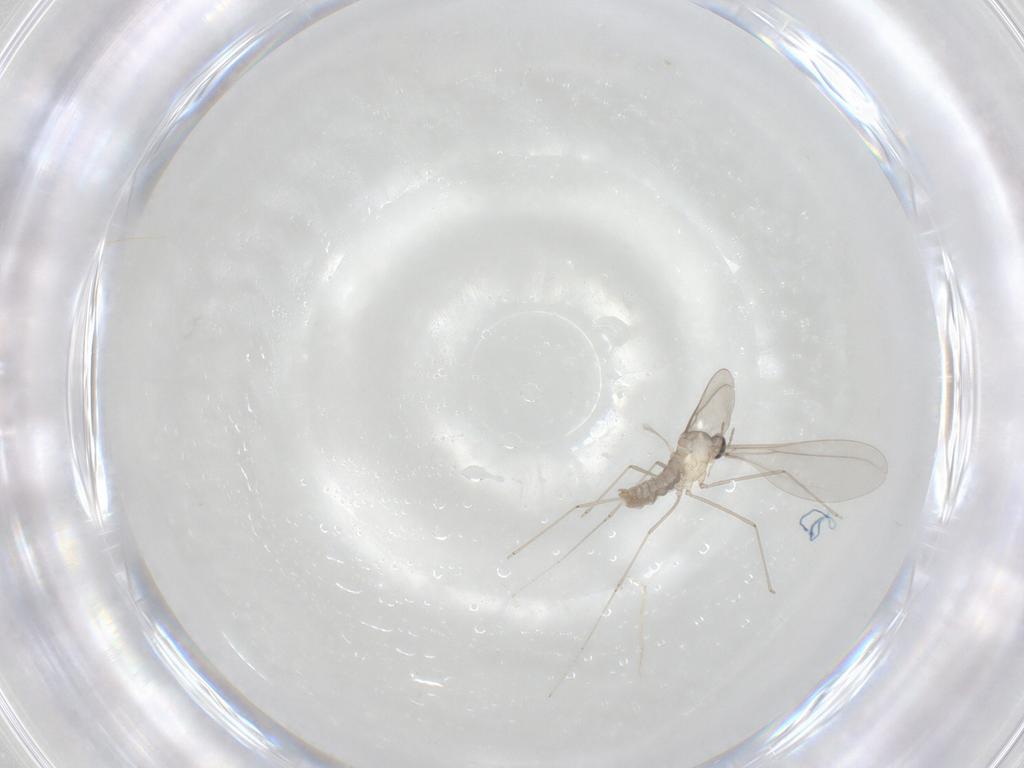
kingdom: Animalia
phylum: Arthropoda
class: Insecta
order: Diptera
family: Cecidomyiidae
